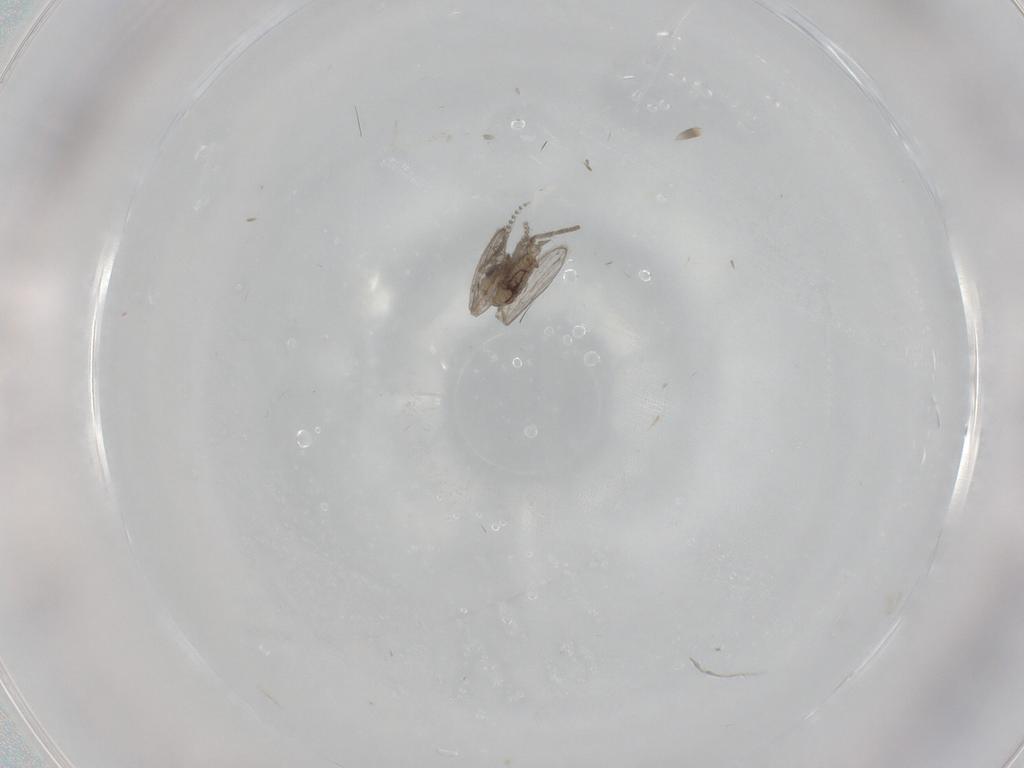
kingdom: Animalia
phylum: Arthropoda
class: Insecta
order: Diptera
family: Psychodidae
